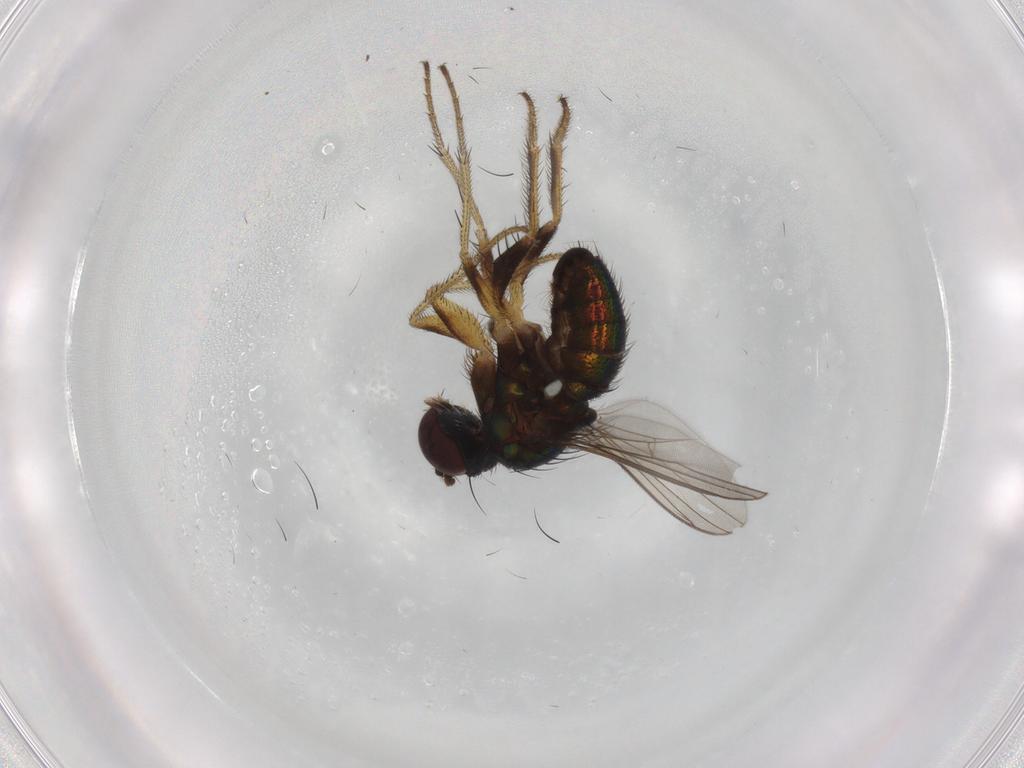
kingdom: Animalia
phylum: Arthropoda
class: Insecta
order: Diptera
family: Dolichopodidae
